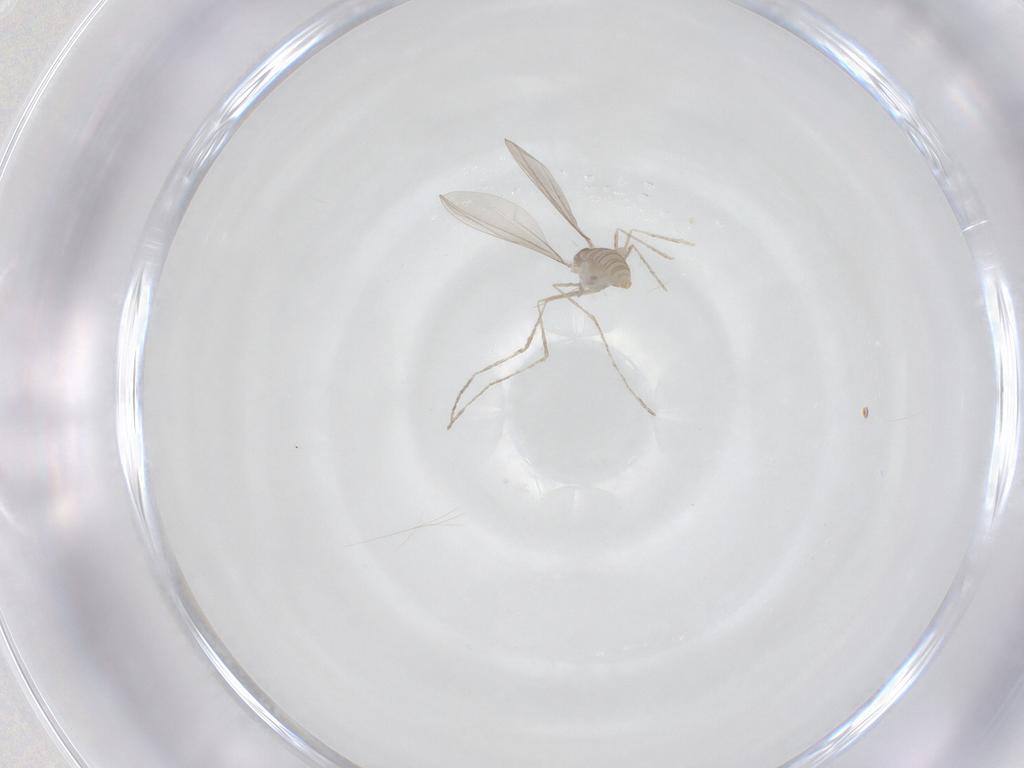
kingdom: Animalia
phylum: Arthropoda
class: Insecta
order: Diptera
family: Cecidomyiidae
